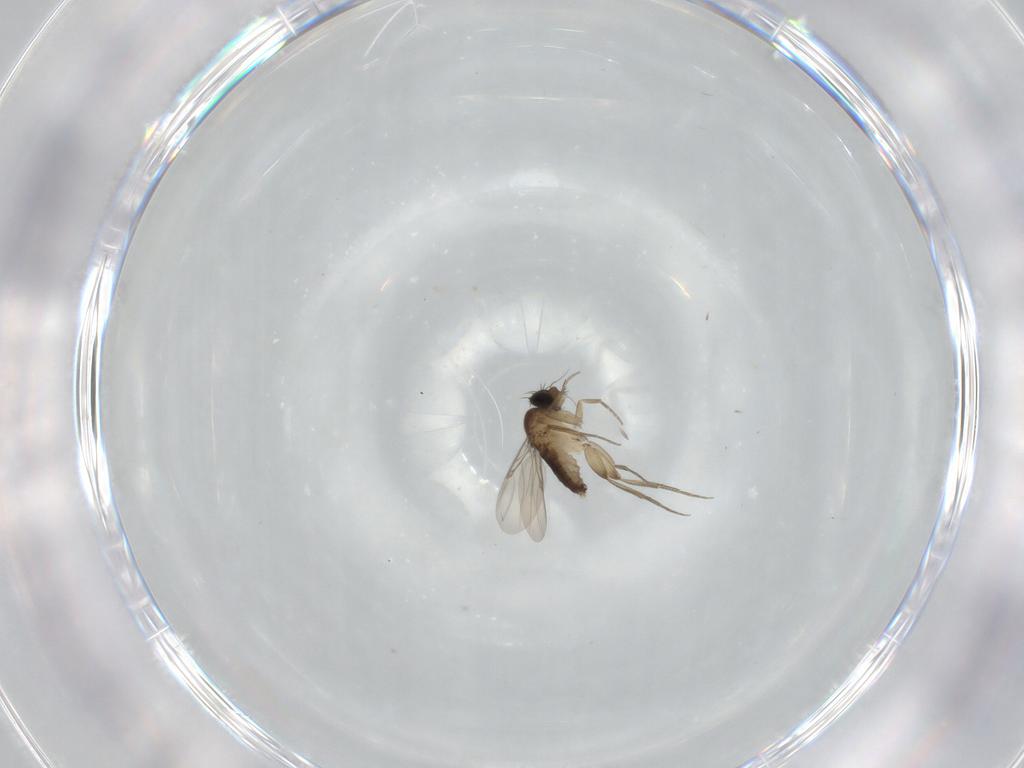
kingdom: Animalia
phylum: Arthropoda
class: Insecta
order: Diptera
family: Phoridae
